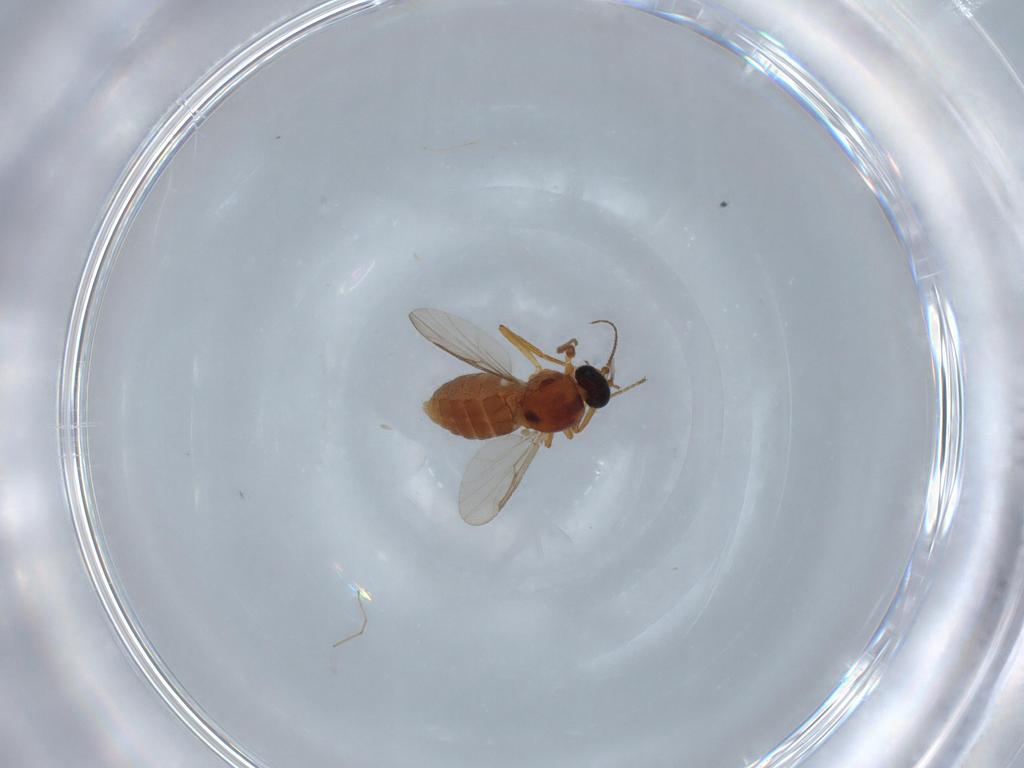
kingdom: Animalia
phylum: Arthropoda
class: Insecta
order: Diptera
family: Ceratopogonidae
